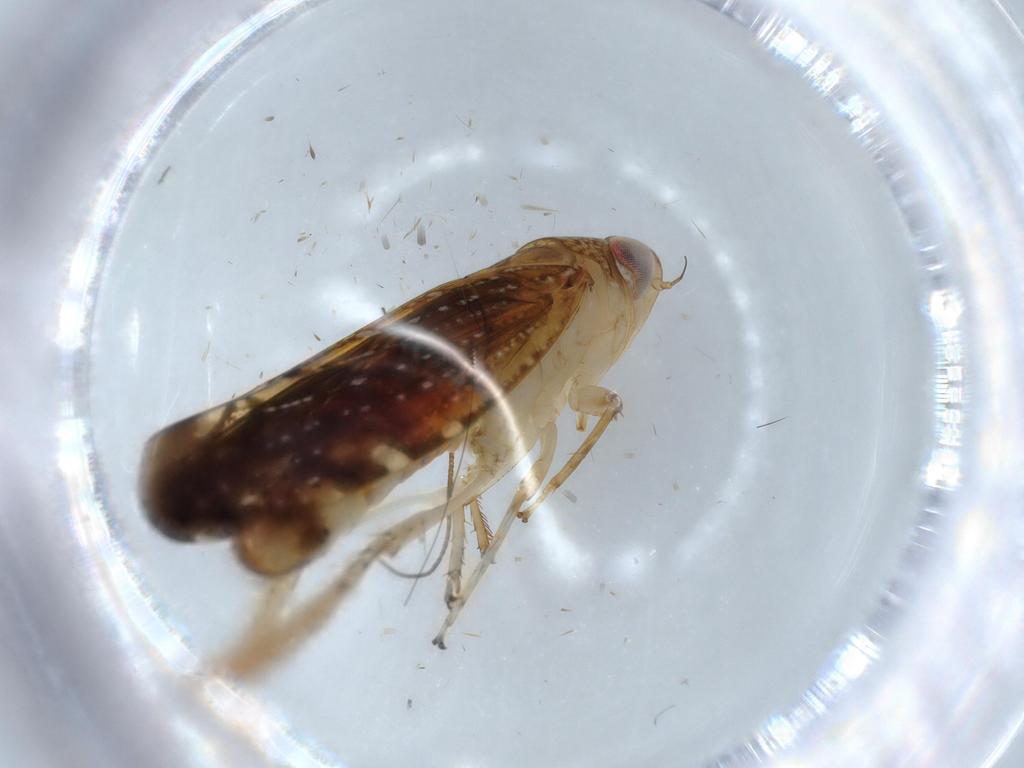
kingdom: Animalia
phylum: Arthropoda
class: Insecta
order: Hemiptera
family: Cicadellidae
